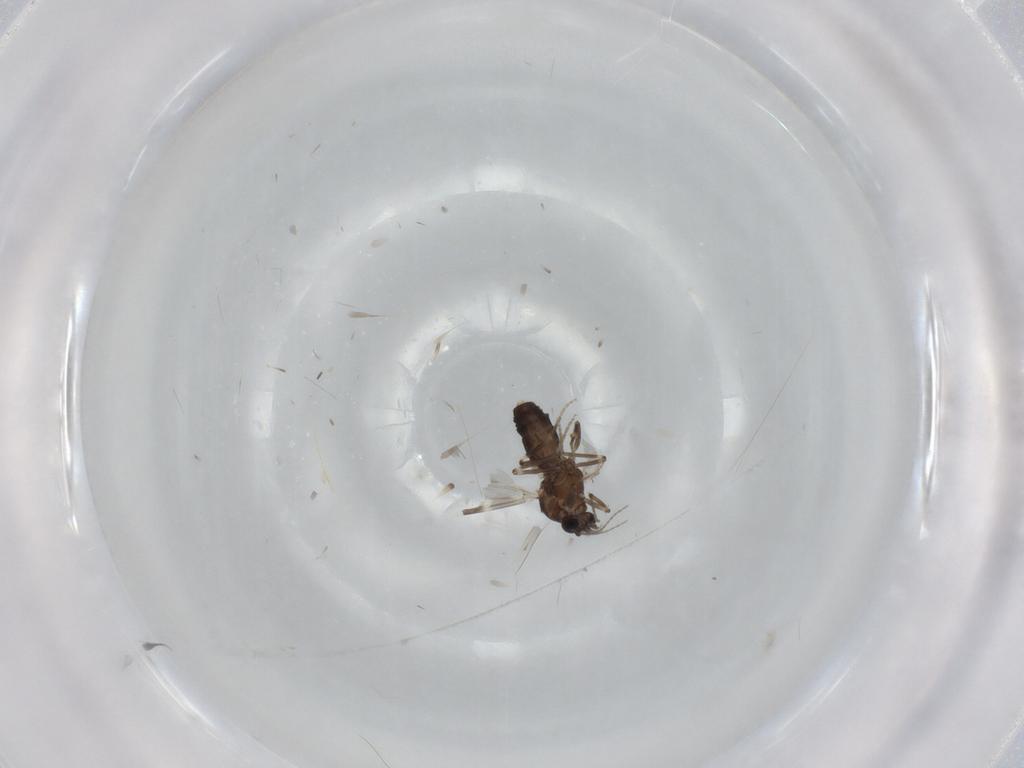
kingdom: Animalia
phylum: Arthropoda
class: Insecta
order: Diptera
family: Ceratopogonidae
